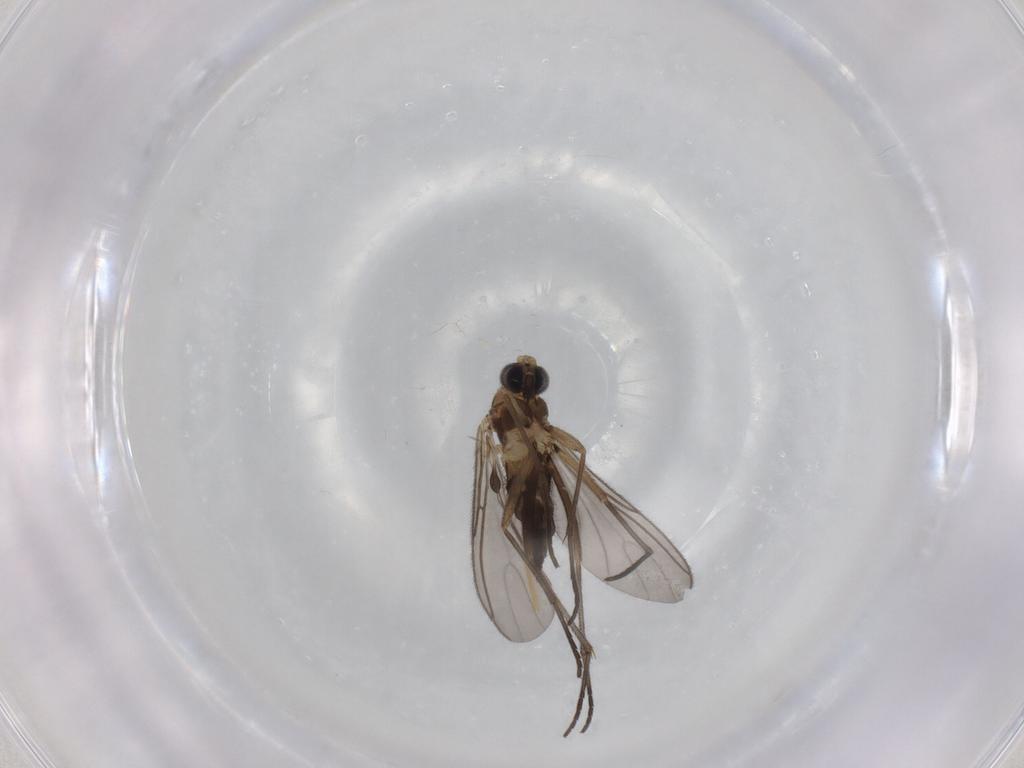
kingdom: Animalia
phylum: Arthropoda
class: Insecta
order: Diptera
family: Sciaridae
